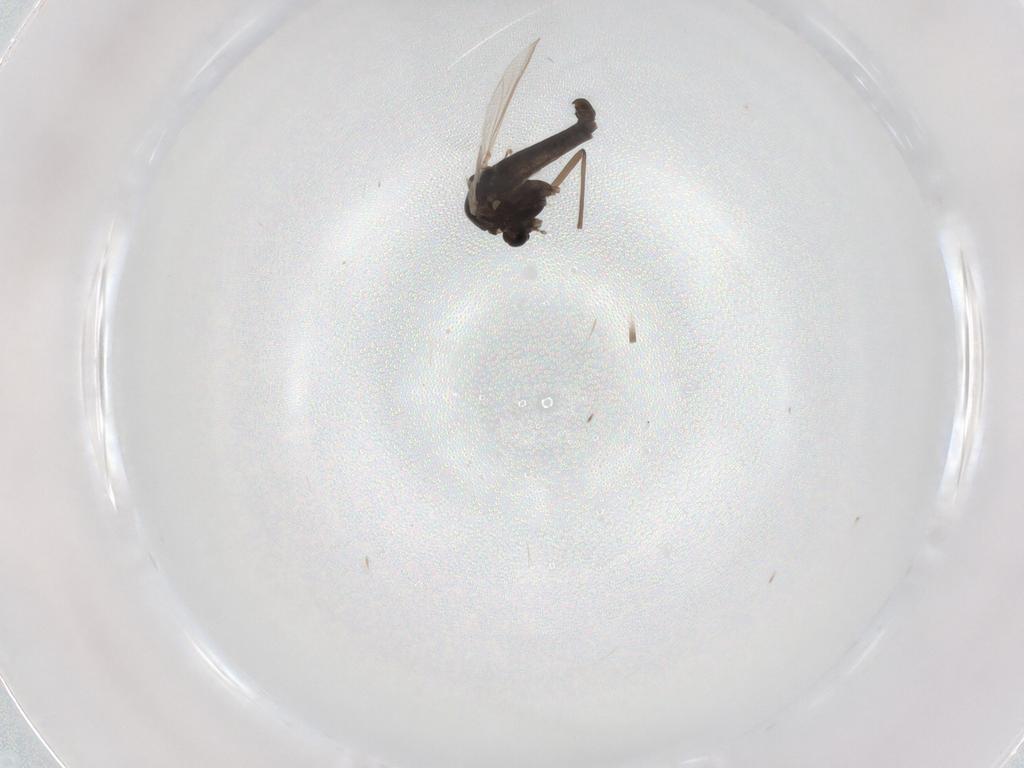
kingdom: Animalia
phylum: Arthropoda
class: Insecta
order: Diptera
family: Chironomidae
